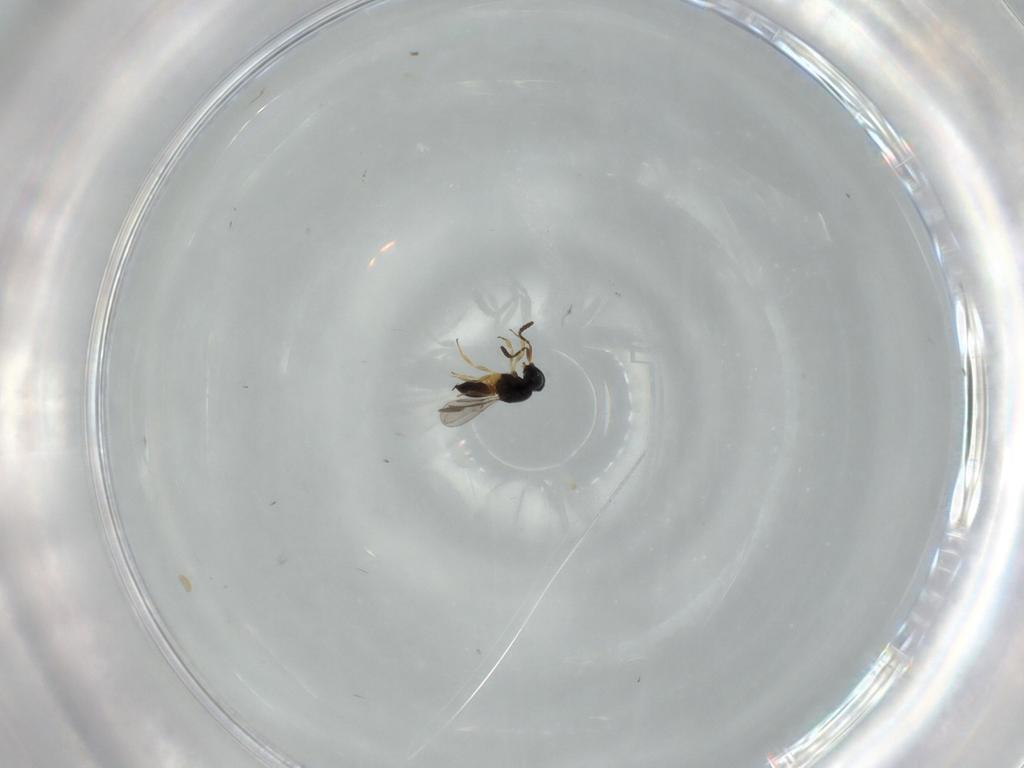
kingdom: Animalia
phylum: Arthropoda
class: Insecta
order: Hymenoptera
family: Scelionidae
